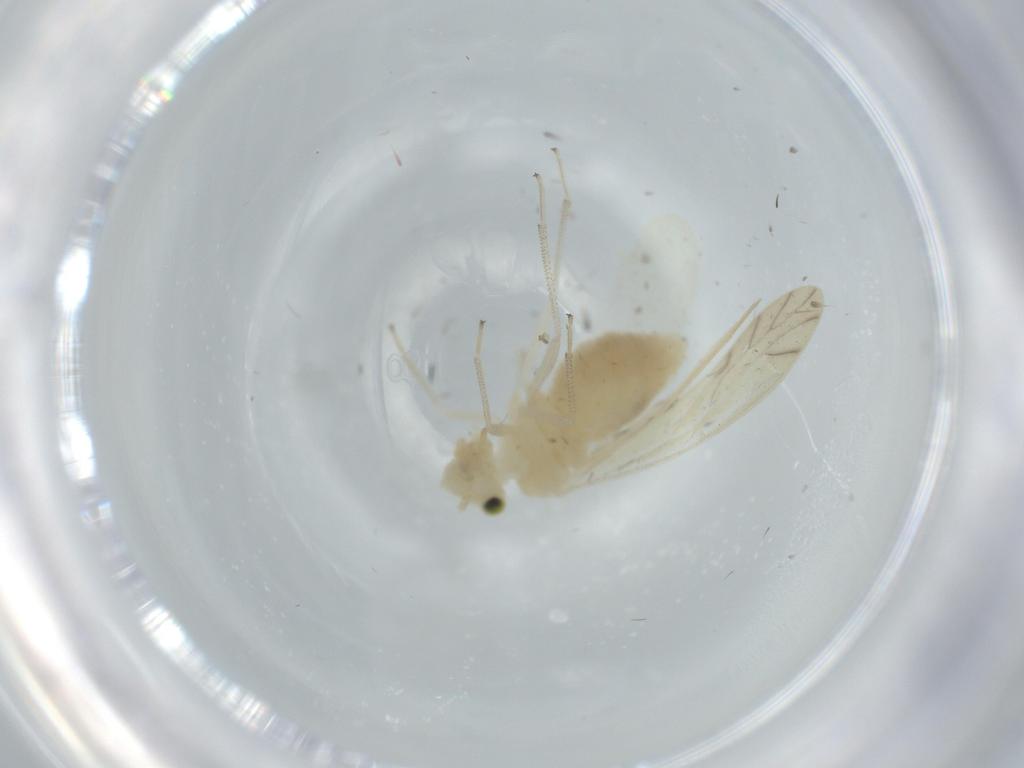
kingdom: Animalia
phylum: Arthropoda
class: Insecta
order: Psocodea
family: Caeciliusidae
